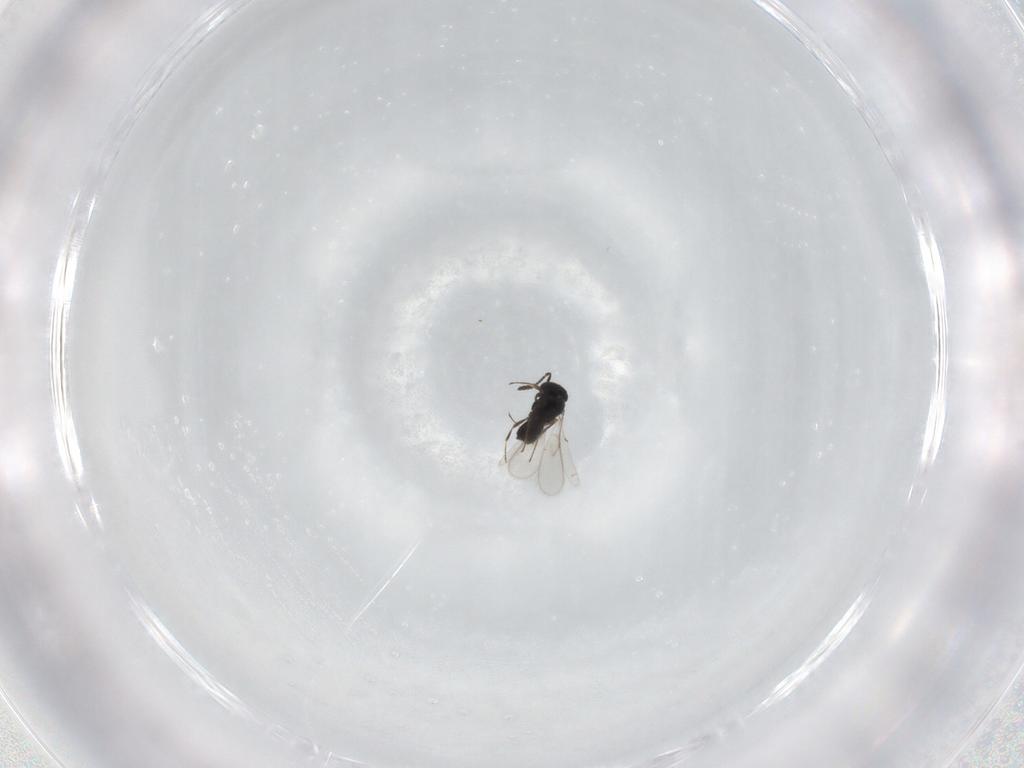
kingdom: Animalia
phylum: Arthropoda
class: Insecta
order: Hymenoptera
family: Scelionidae
